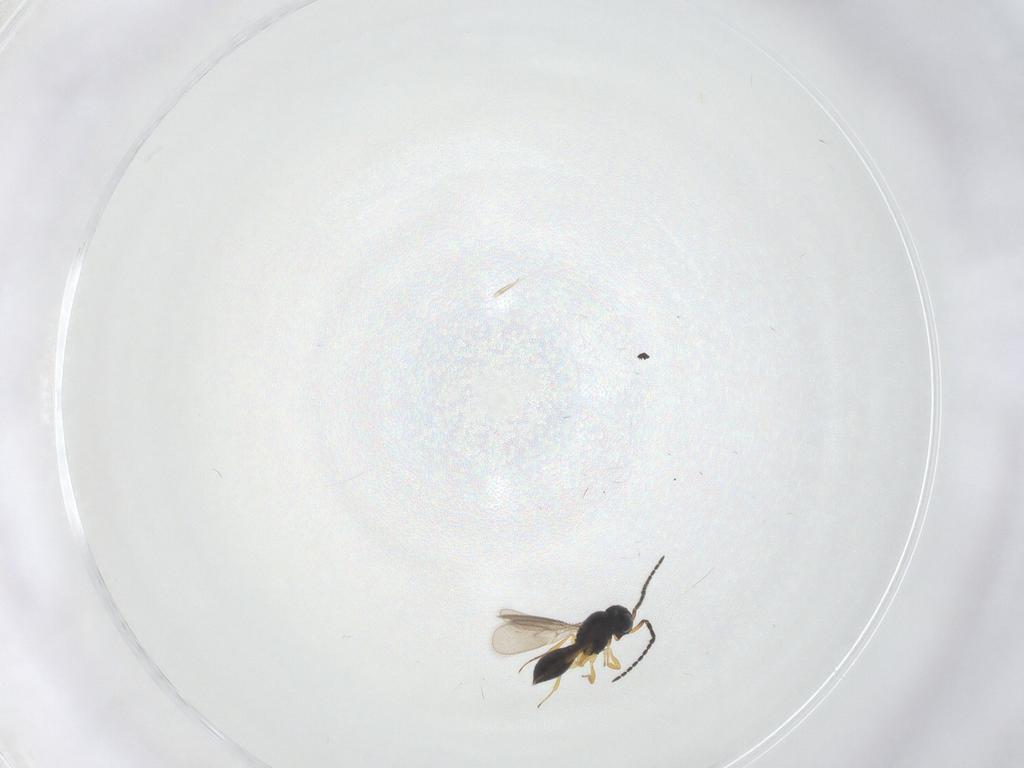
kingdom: Animalia
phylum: Arthropoda
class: Insecta
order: Hymenoptera
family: Scelionidae
